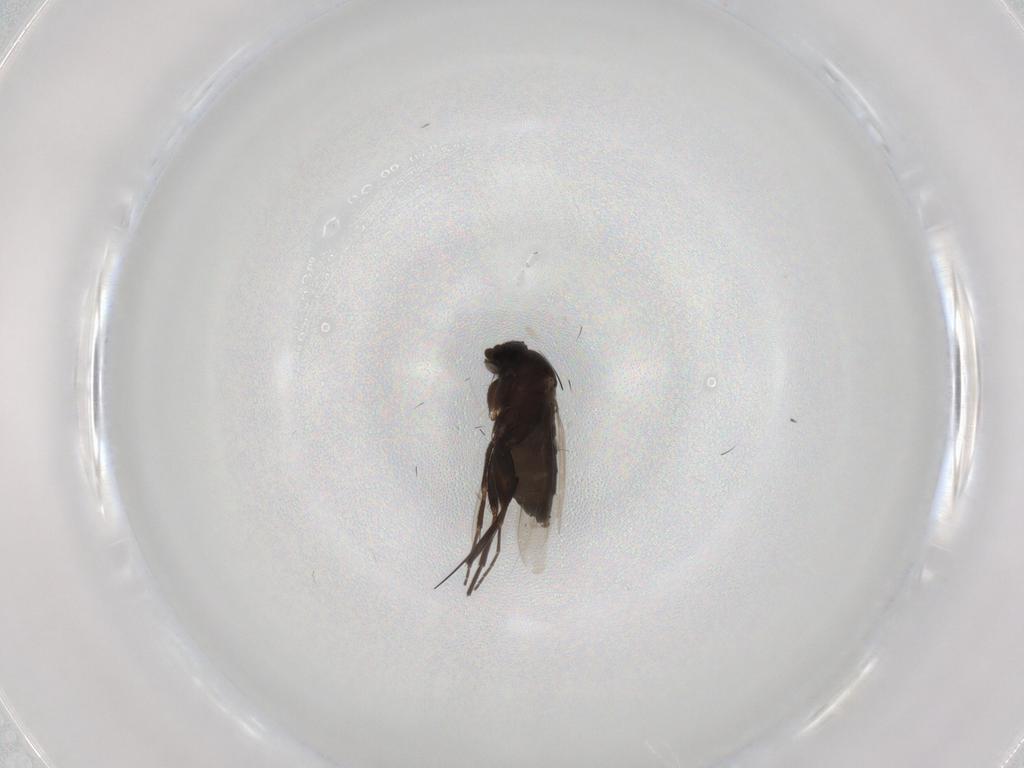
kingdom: Animalia
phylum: Arthropoda
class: Insecta
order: Diptera
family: Phoridae
